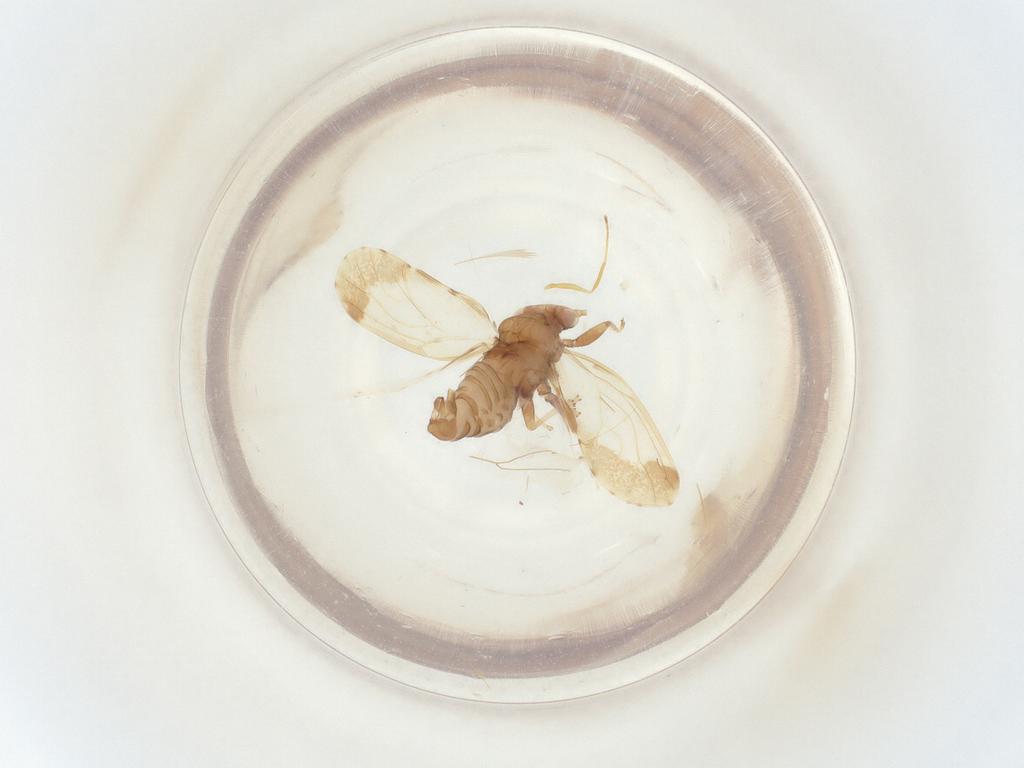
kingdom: Animalia
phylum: Arthropoda
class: Insecta
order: Hemiptera
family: Psyllidae
